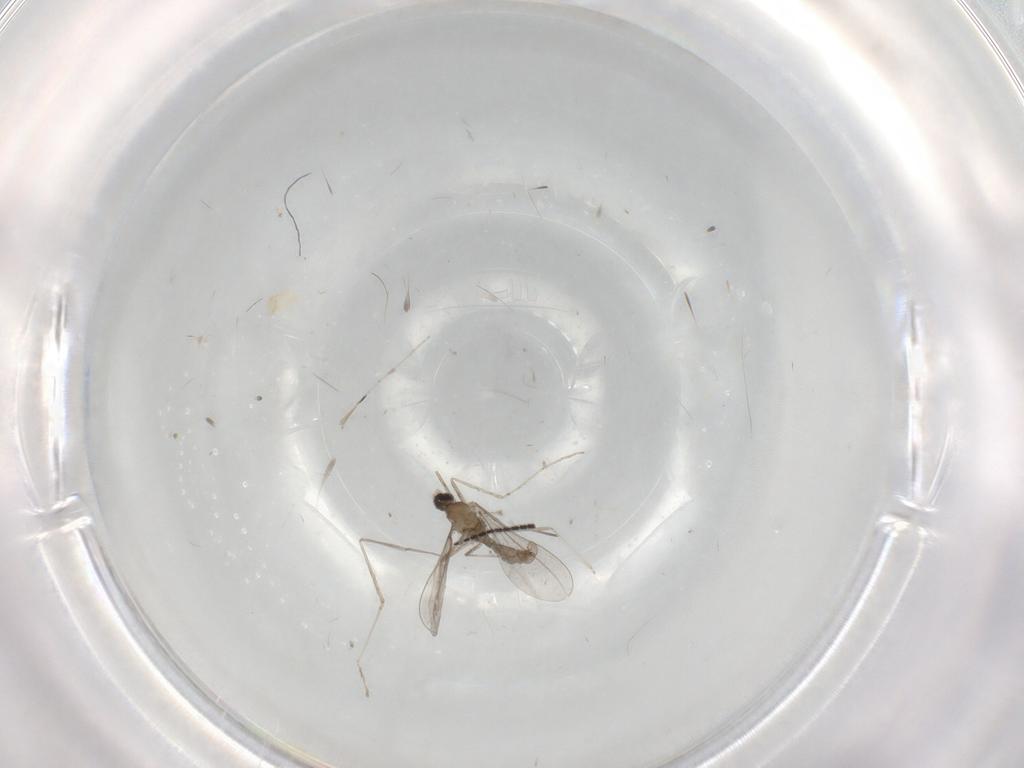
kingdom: Animalia
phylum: Arthropoda
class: Insecta
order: Diptera
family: Cecidomyiidae
